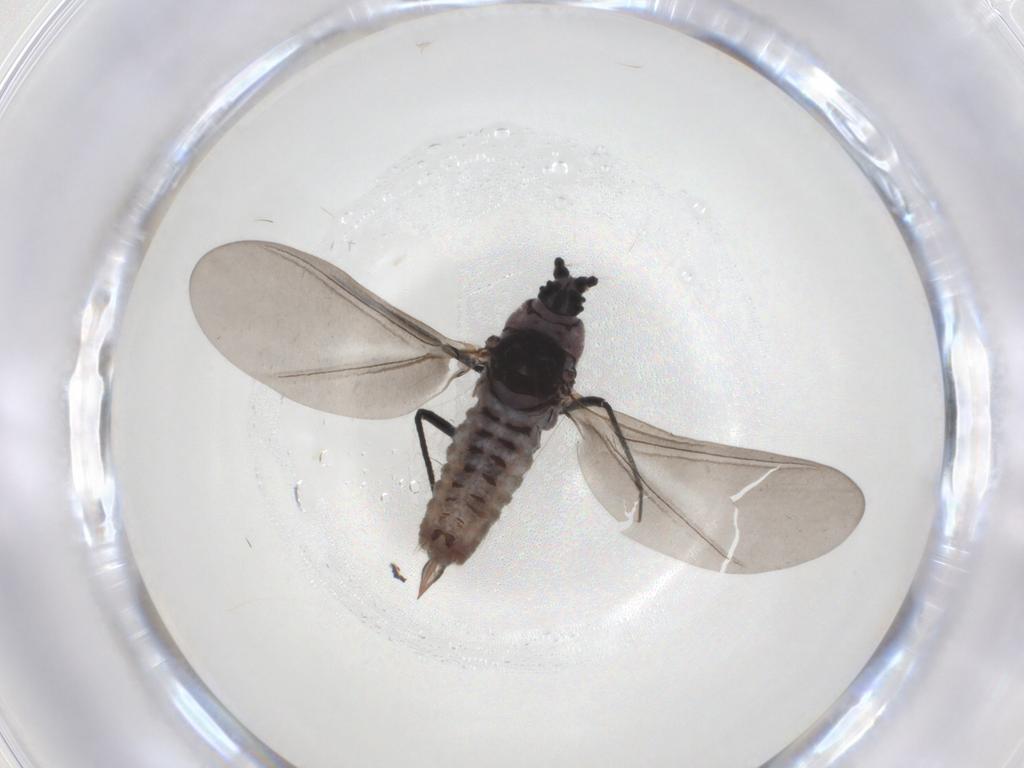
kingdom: Animalia
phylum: Arthropoda
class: Insecta
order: Hemiptera
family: Putoidae
